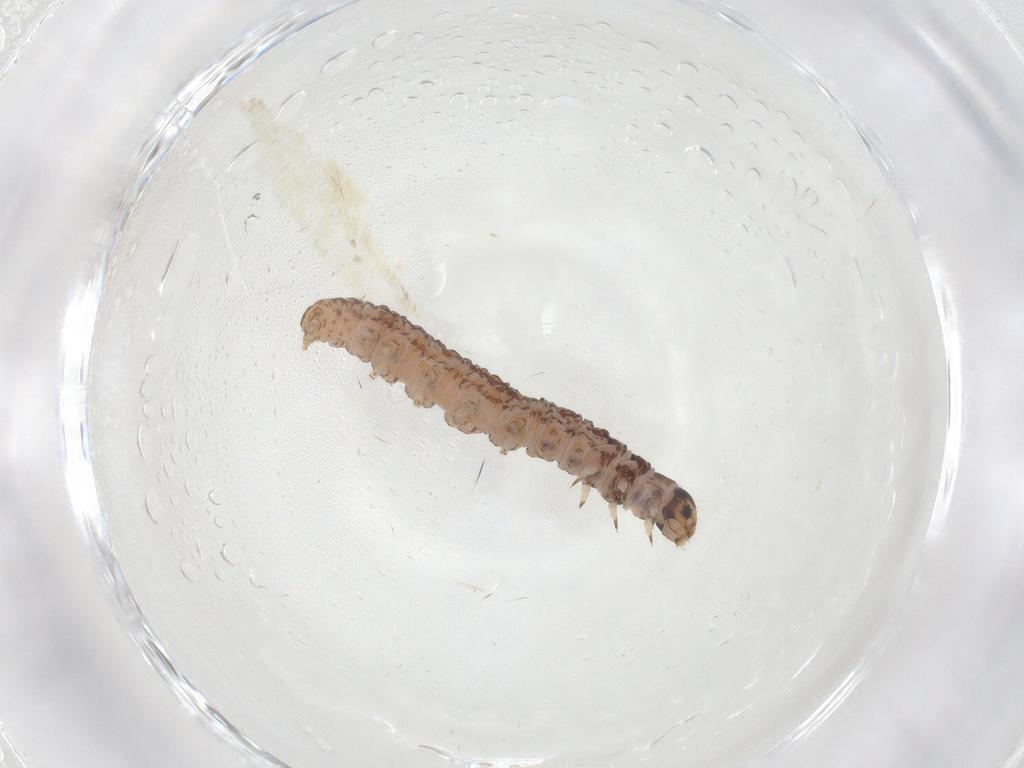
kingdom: Animalia
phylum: Arthropoda
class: Insecta
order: Lepidoptera
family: Scythrididae
